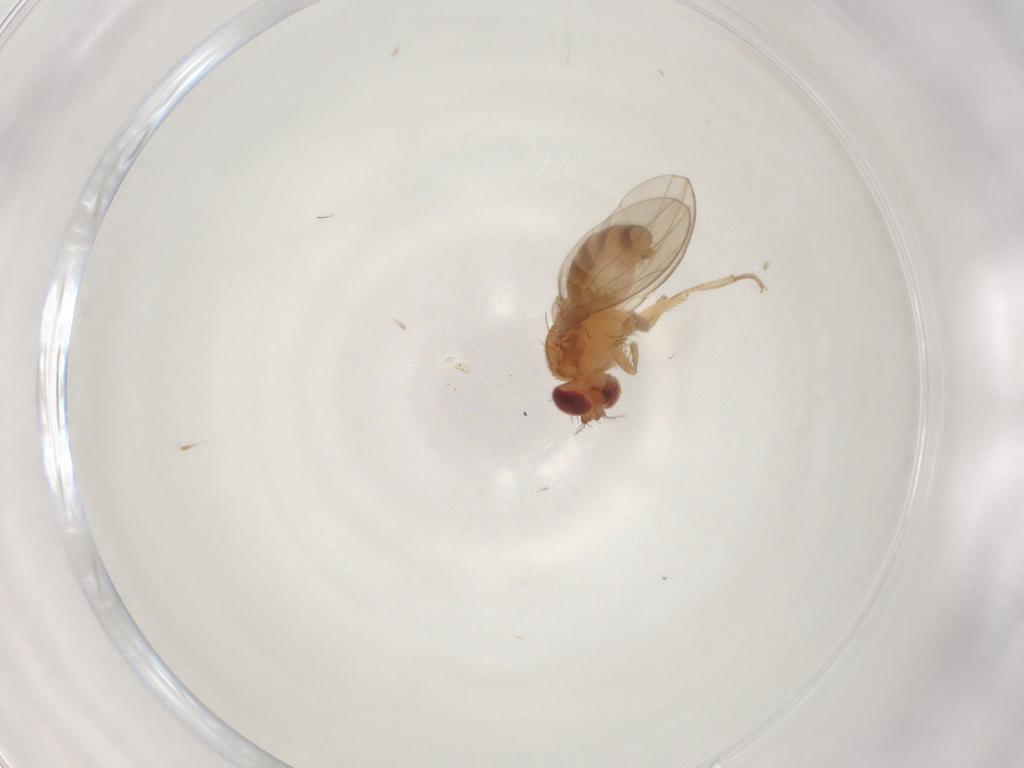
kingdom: Animalia
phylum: Arthropoda
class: Insecta
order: Diptera
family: Drosophilidae
